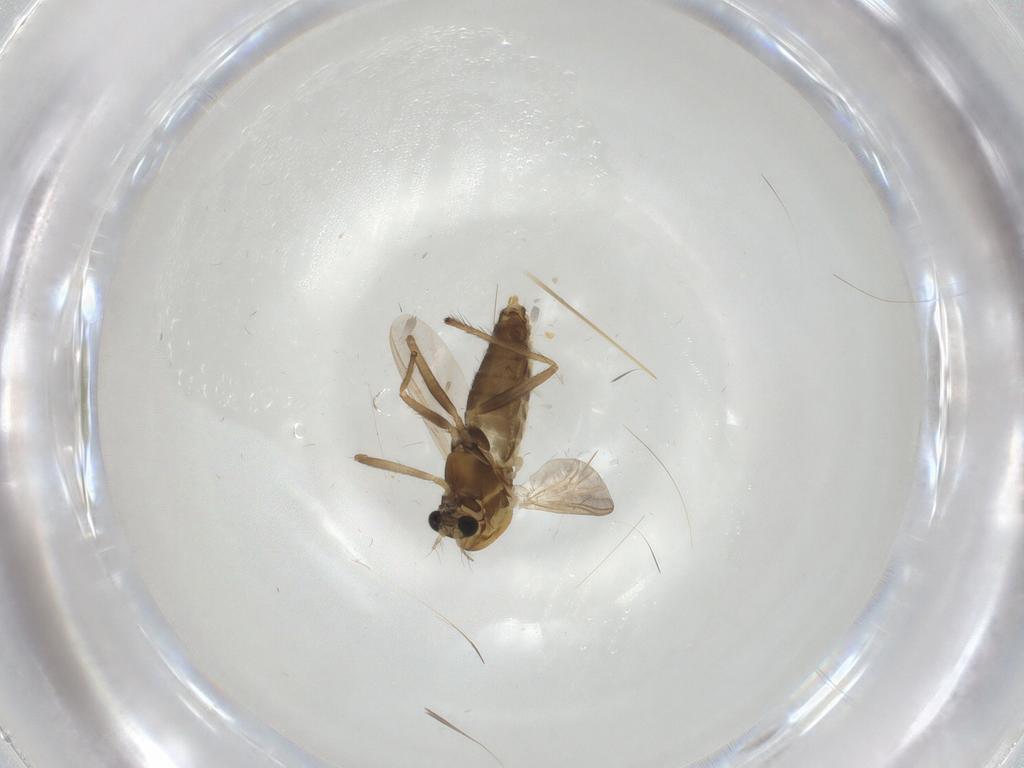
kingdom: Animalia
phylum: Arthropoda
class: Insecta
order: Diptera
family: Chironomidae
